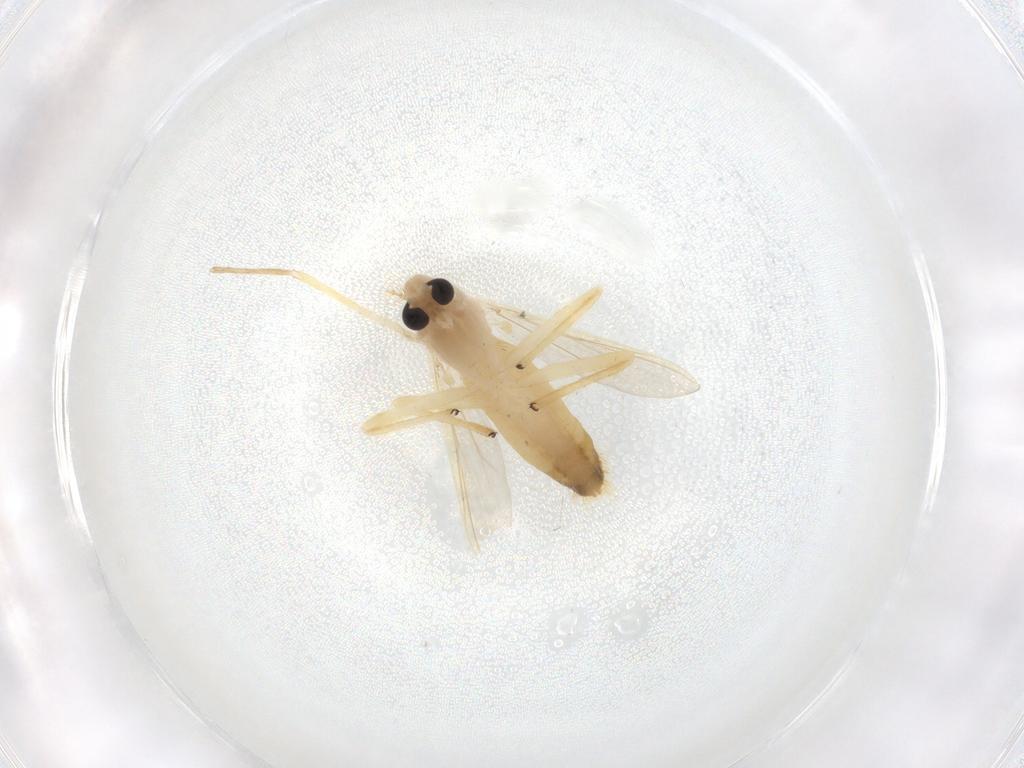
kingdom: Animalia
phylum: Arthropoda
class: Insecta
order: Diptera
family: Chironomidae
